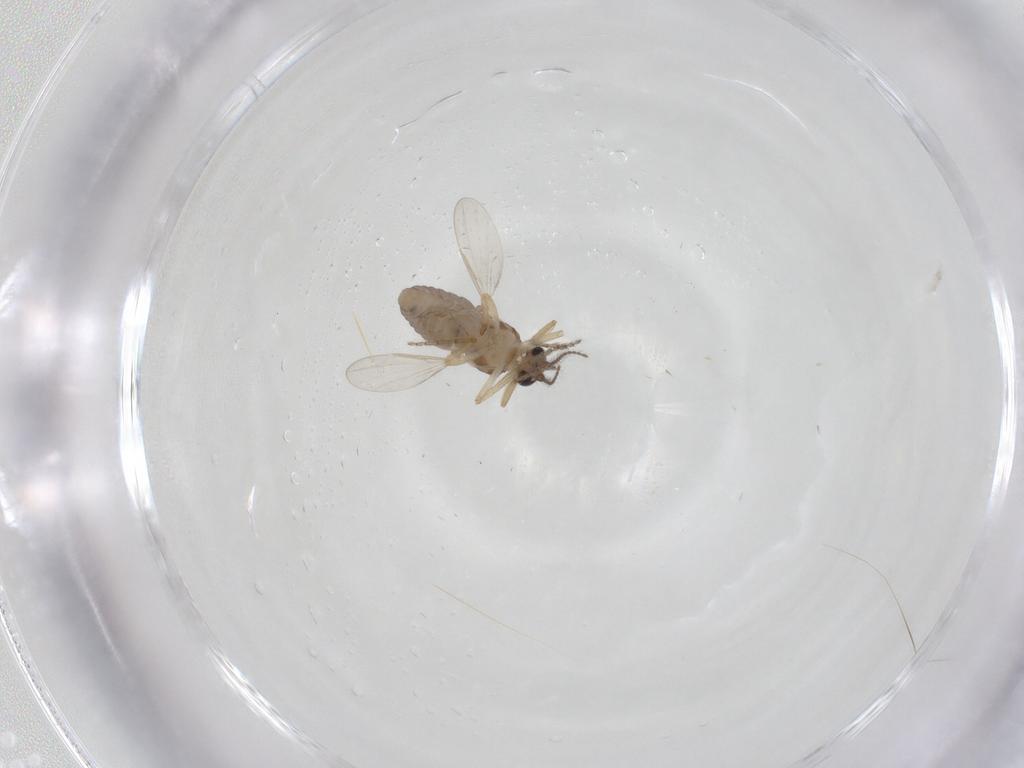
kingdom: Animalia
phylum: Arthropoda
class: Insecta
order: Diptera
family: Ceratopogonidae
